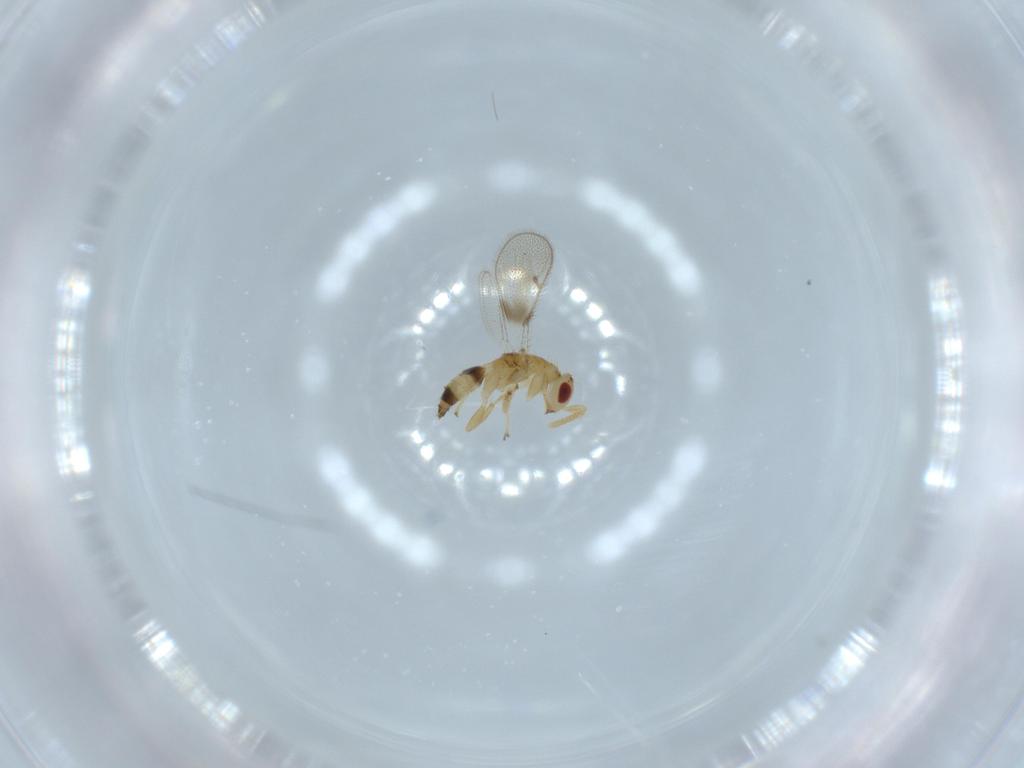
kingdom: Animalia
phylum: Arthropoda
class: Insecta
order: Hymenoptera
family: Torymidae
